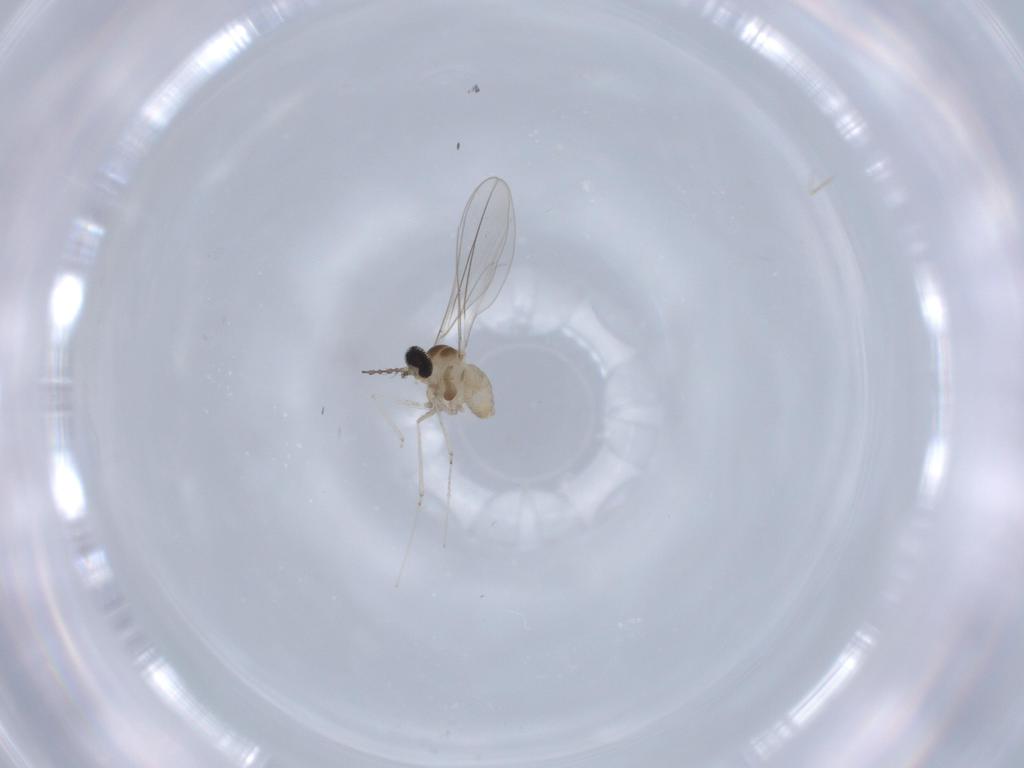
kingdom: Animalia
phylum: Arthropoda
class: Insecta
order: Diptera
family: Cecidomyiidae
